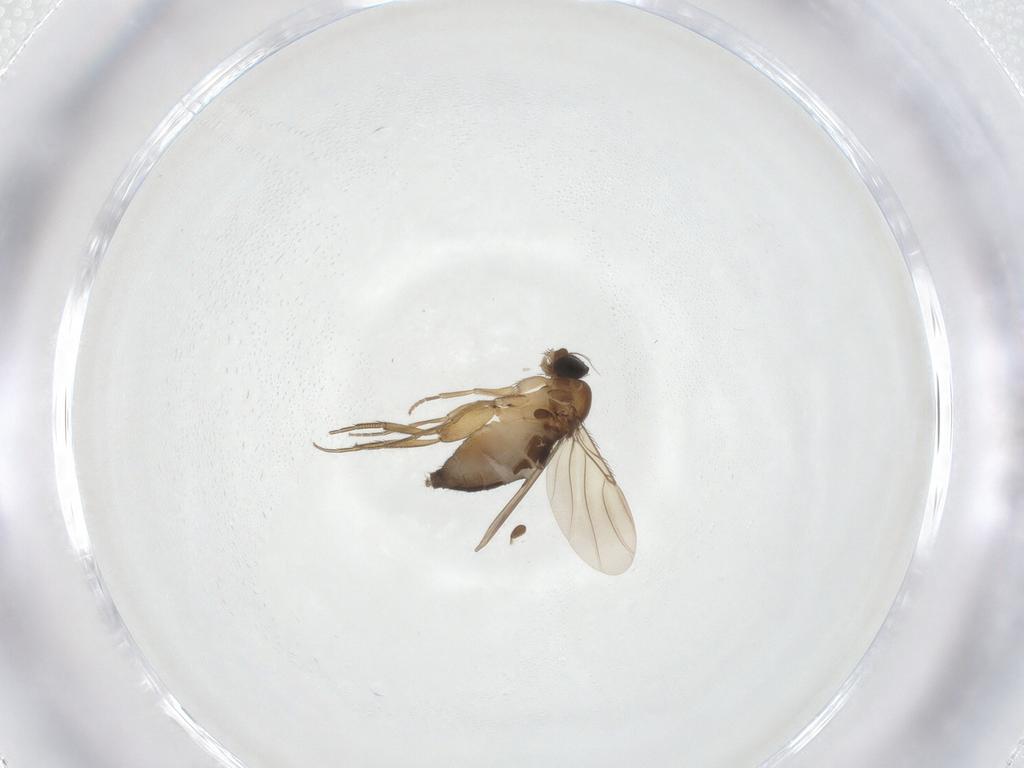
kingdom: Animalia
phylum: Arthropoda
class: Insecta
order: Diptera
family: Phoridae
